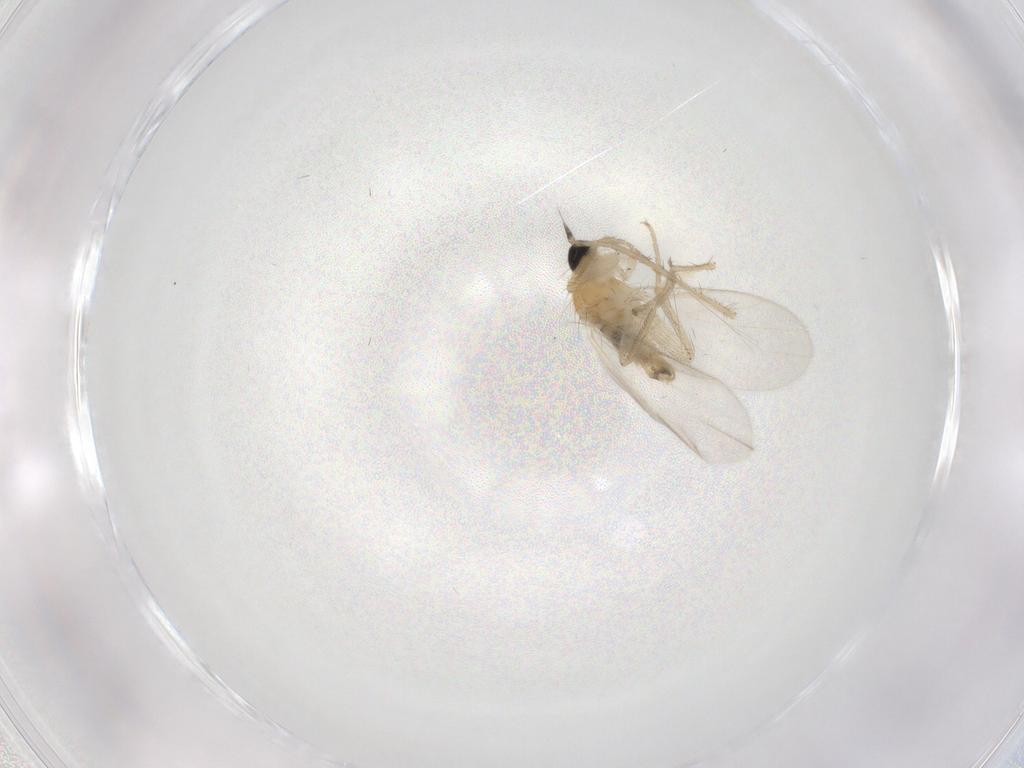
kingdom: Animalia
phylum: Arthropoda
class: Insecta
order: Diptera
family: Hybotidae
